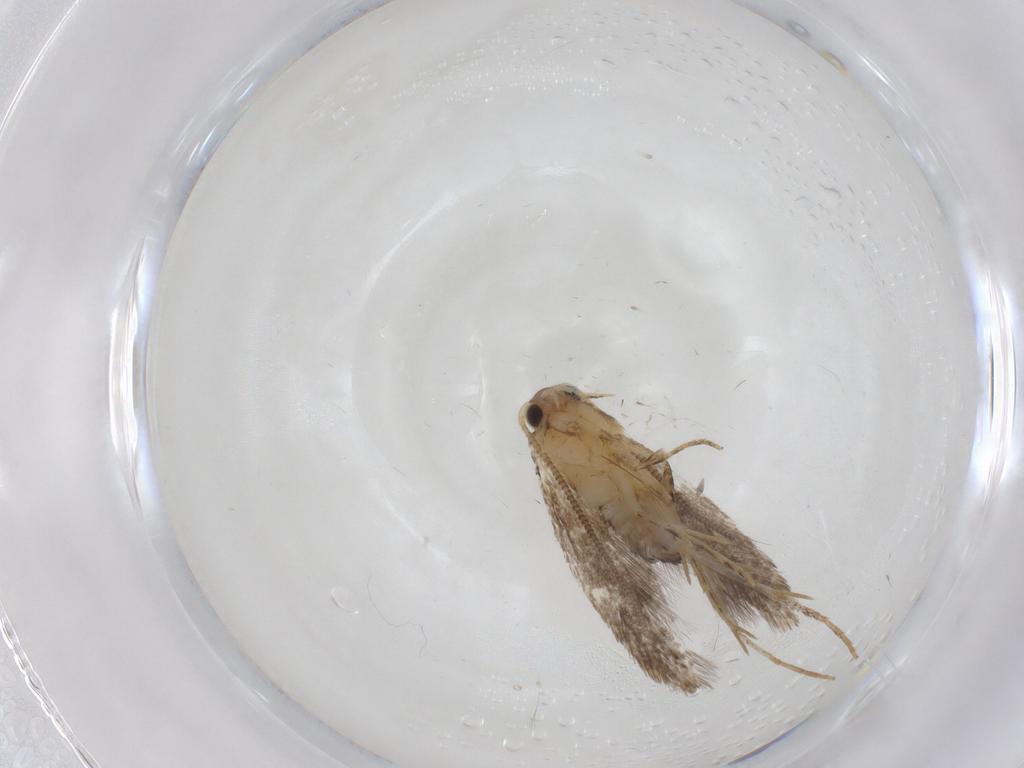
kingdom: Animalia
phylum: Arthropoda
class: Insecta
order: Lepidoptera
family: Tineidae
